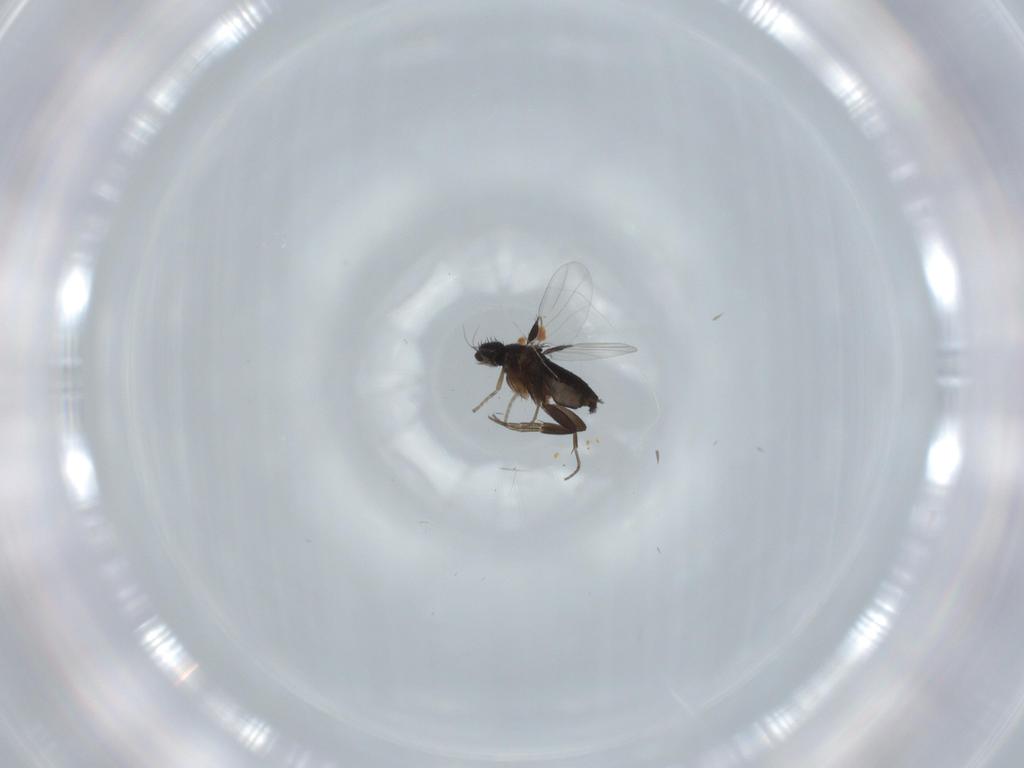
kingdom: Animalia
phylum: Arthropoda
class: Insecta
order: Diptera
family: Phoridae
